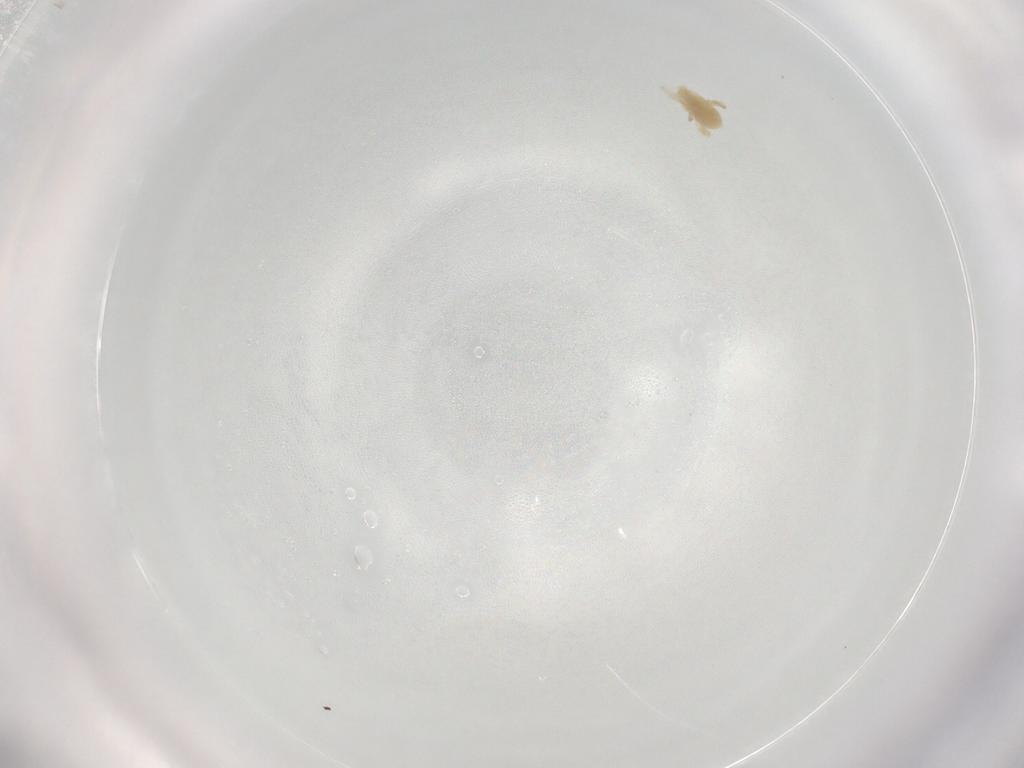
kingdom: Animalia
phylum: Arthropoda
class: Arachnida
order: Trombidiformes
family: Eupodidae
